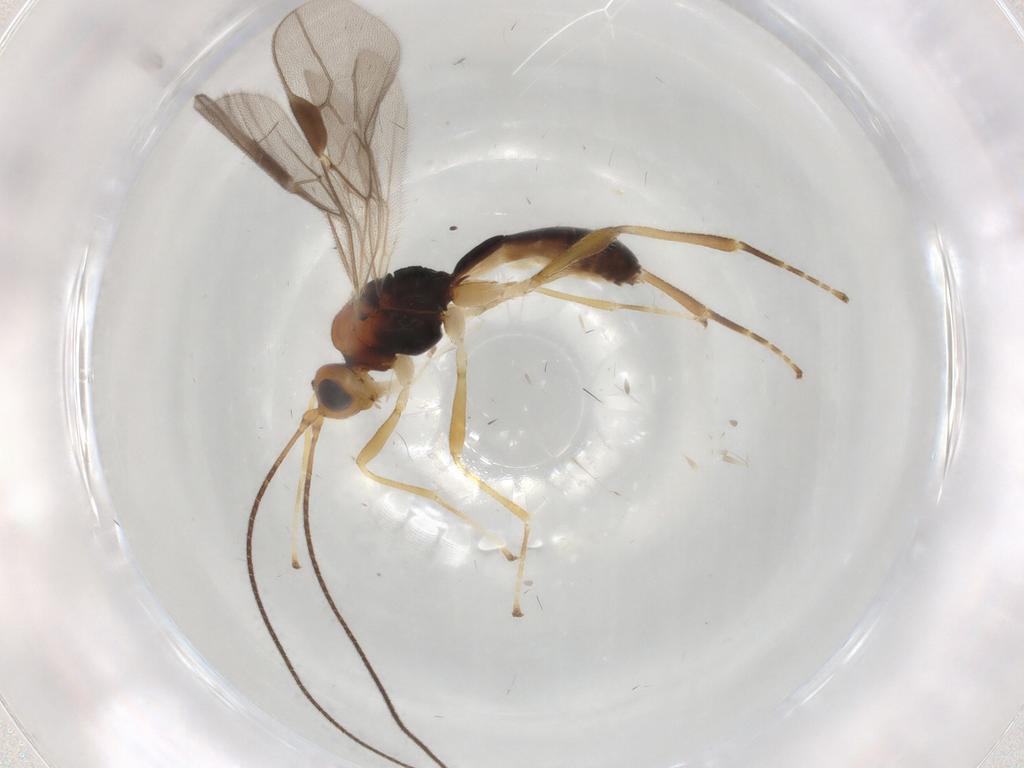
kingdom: Animalia
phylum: Arthropoda
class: Insecta
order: Hymenoptera
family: Braconidae
